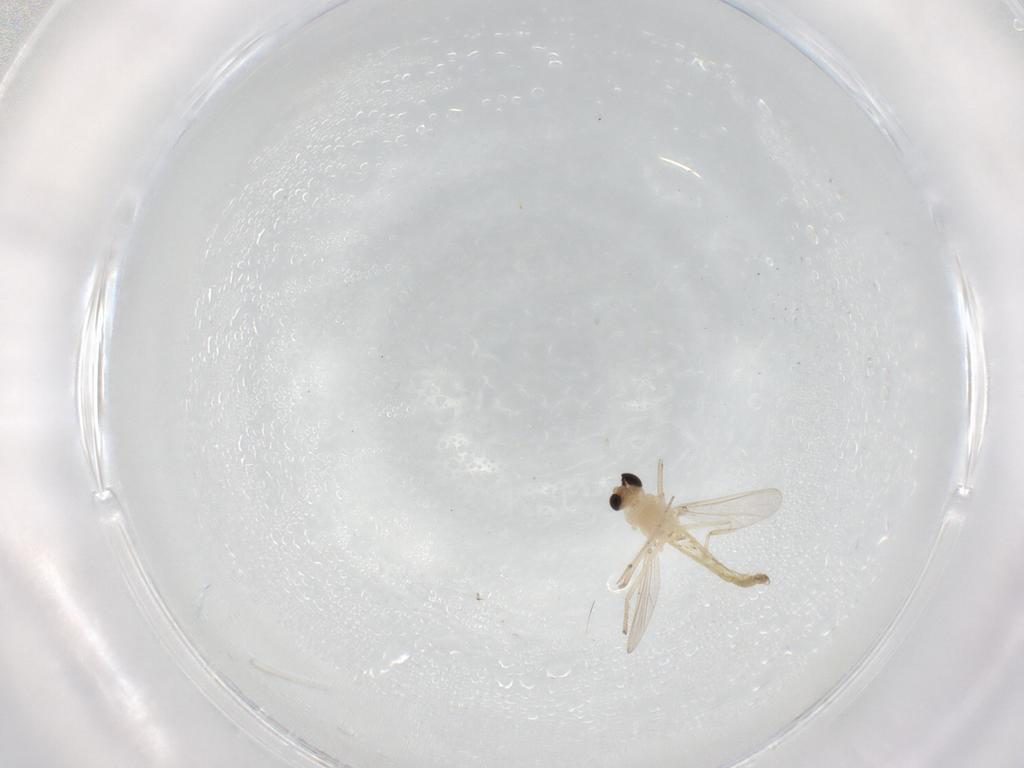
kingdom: Animalia
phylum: Arthropoda
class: Insecta
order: Diptera
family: Chironomidae
